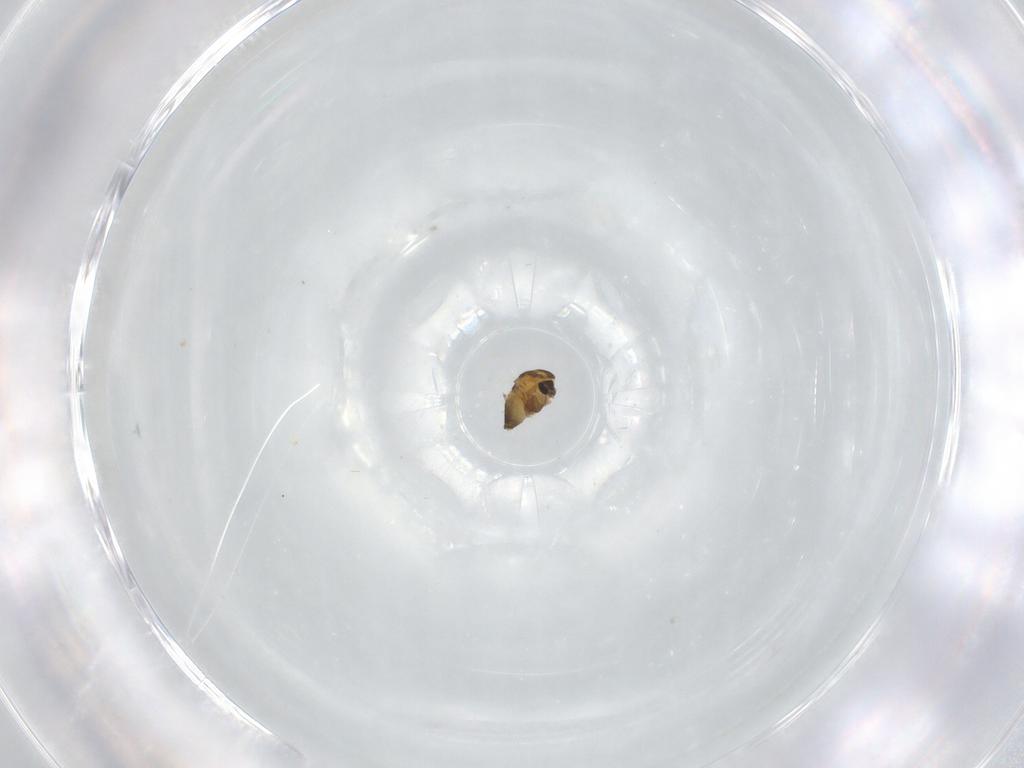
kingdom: Animalia
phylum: Arthropoda
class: Insecta
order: Diptera
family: Chironomidae
